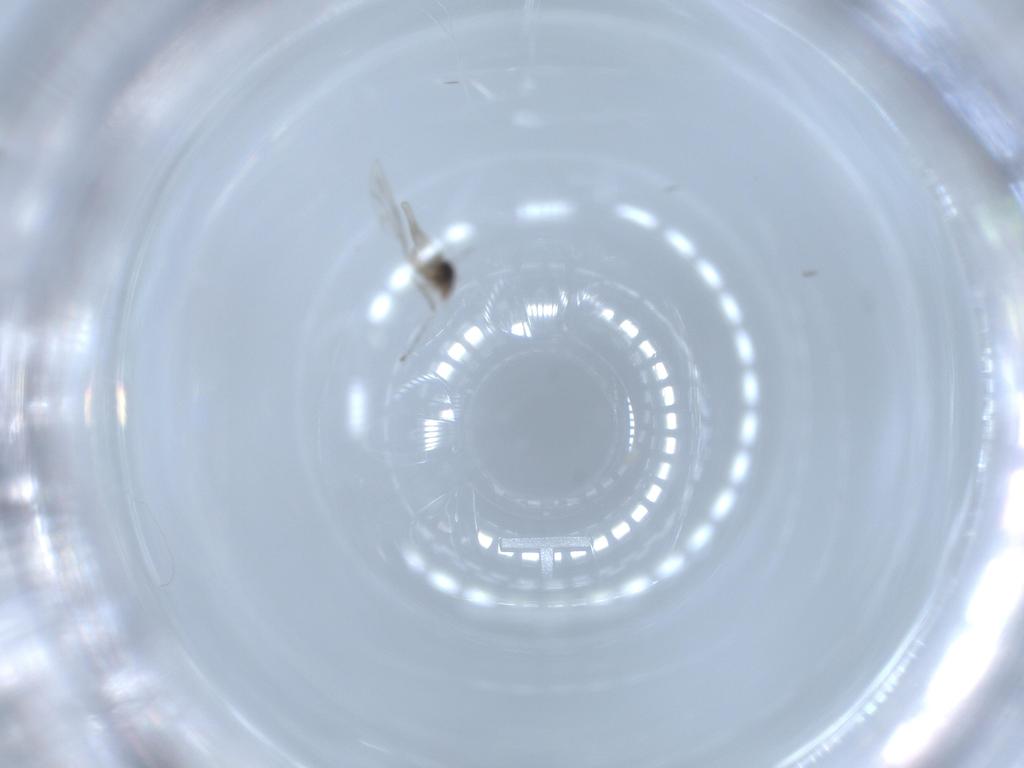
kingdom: Animalia
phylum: Arthropoda
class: Insecta
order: Diptera
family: Cecidomyiidae
